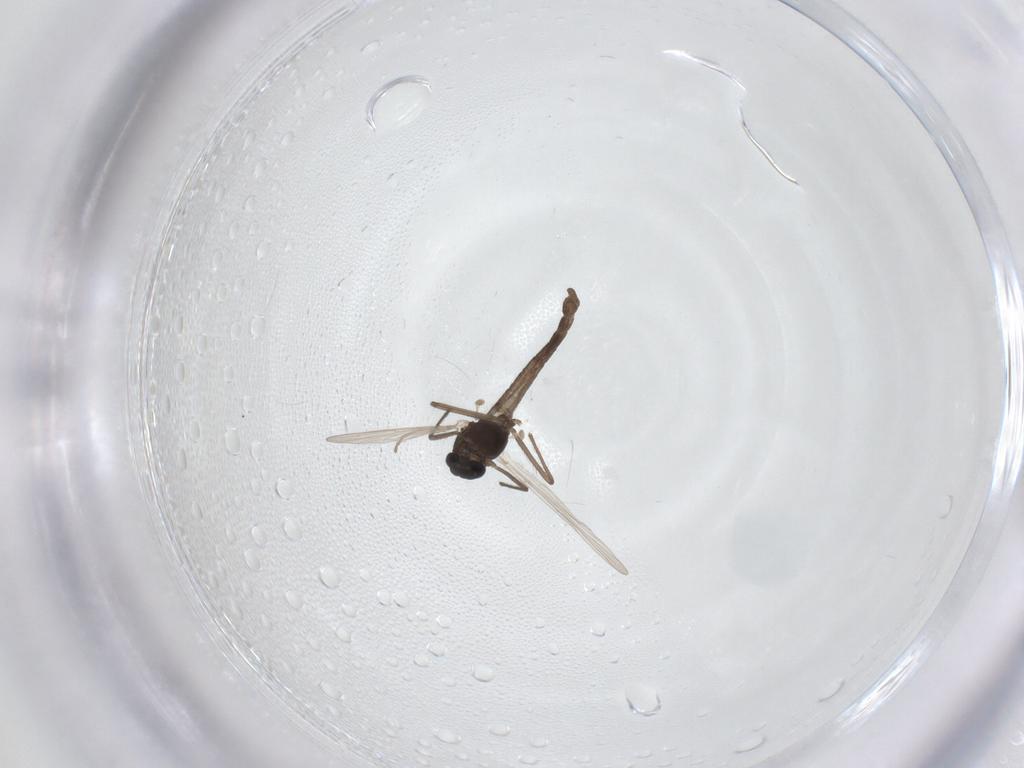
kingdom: Animalia
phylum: Arthropoda
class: Insecta
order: Diptera
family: Chironomidae
